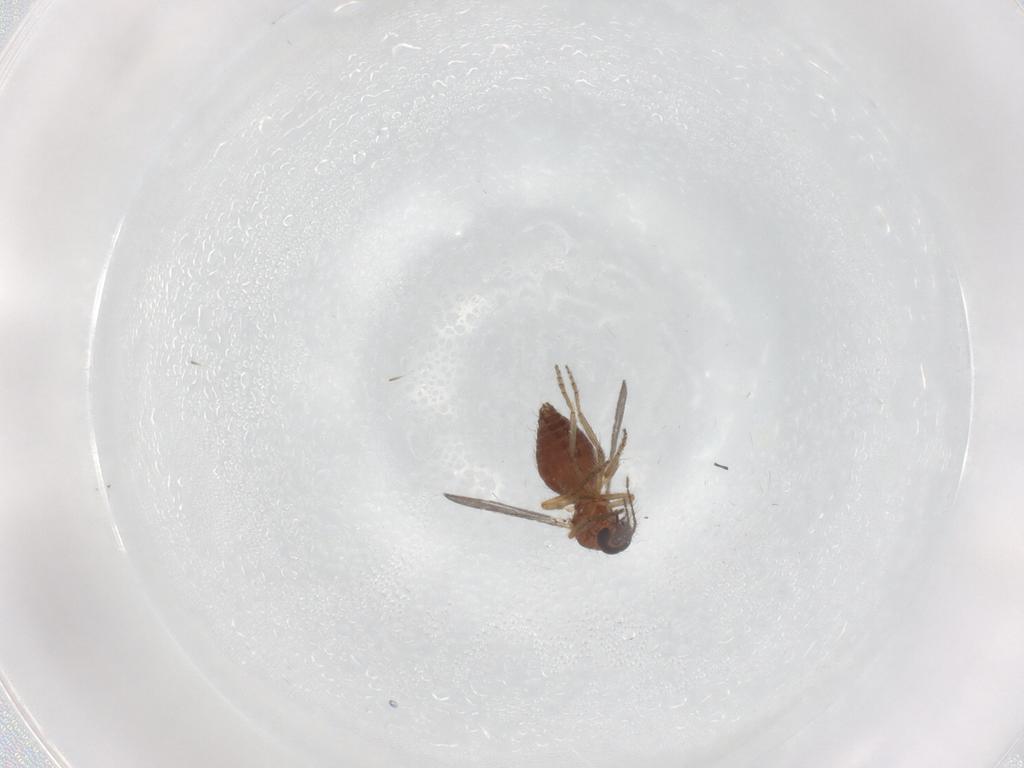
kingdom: Animalia
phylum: Arthropoda
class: Insecta
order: Diptera
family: Ceratopogonidae
